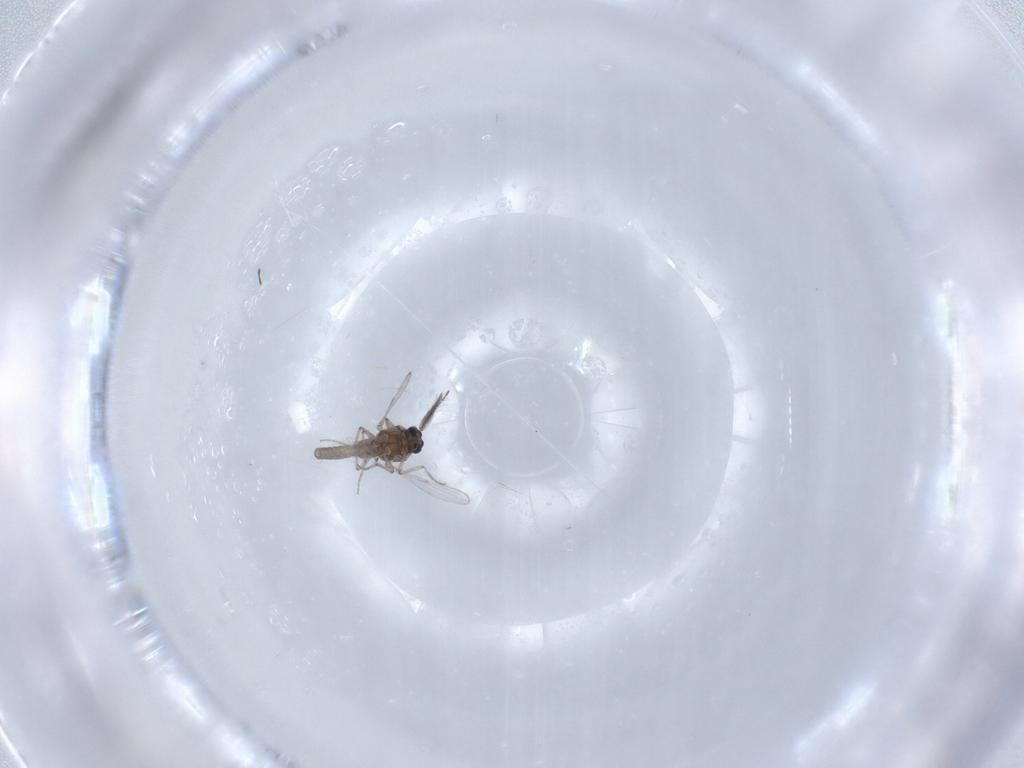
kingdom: Animalia
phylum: Arthropoda
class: Insecta
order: Diptera
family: Ceratopogonidae
